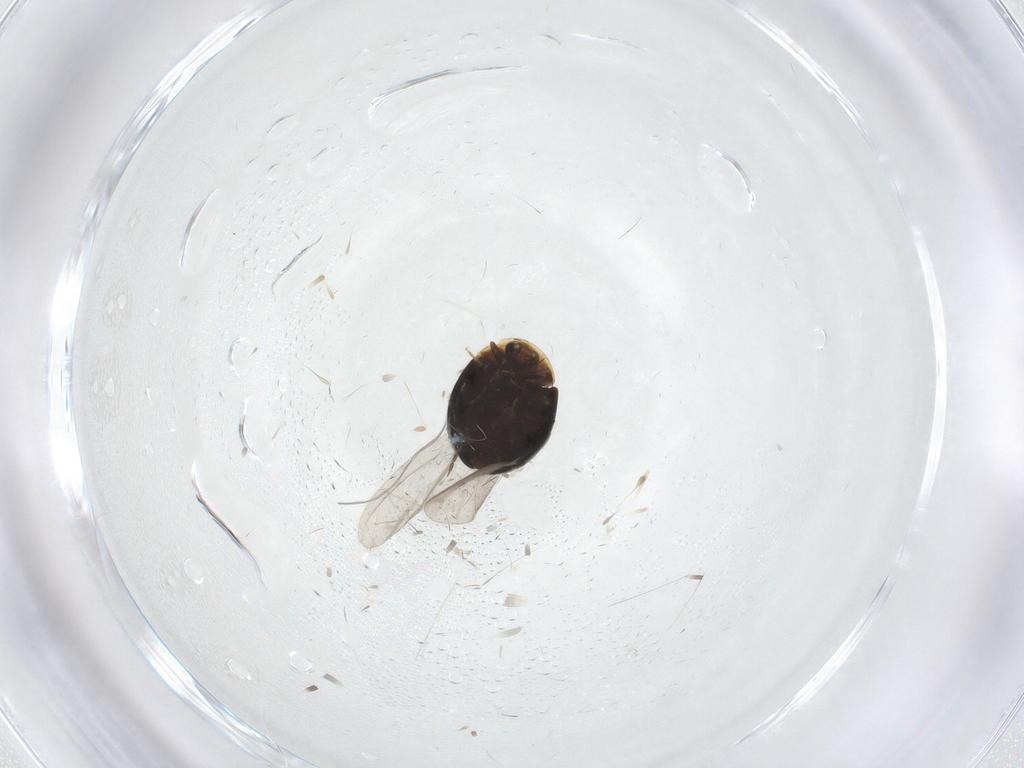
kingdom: Animalia
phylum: Arthropoda
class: Insecta
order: Coleoptera
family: Corylophidae
